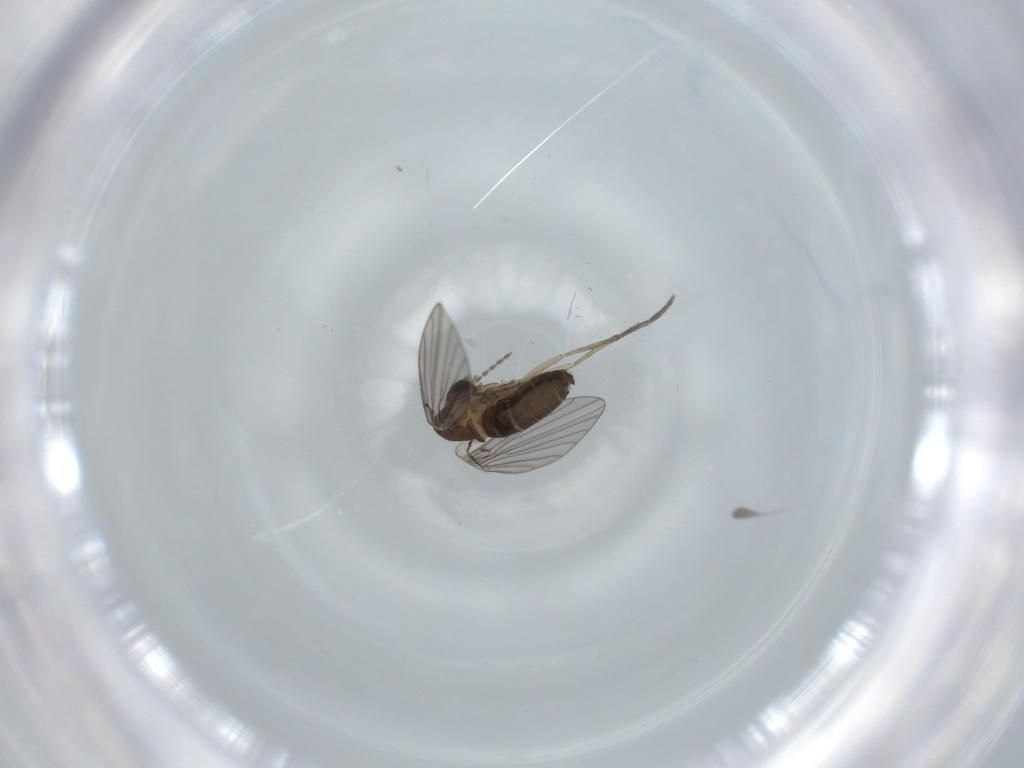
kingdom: Animalia
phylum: Arthropoda
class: Insecta
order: Diptera
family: Psychodidae
